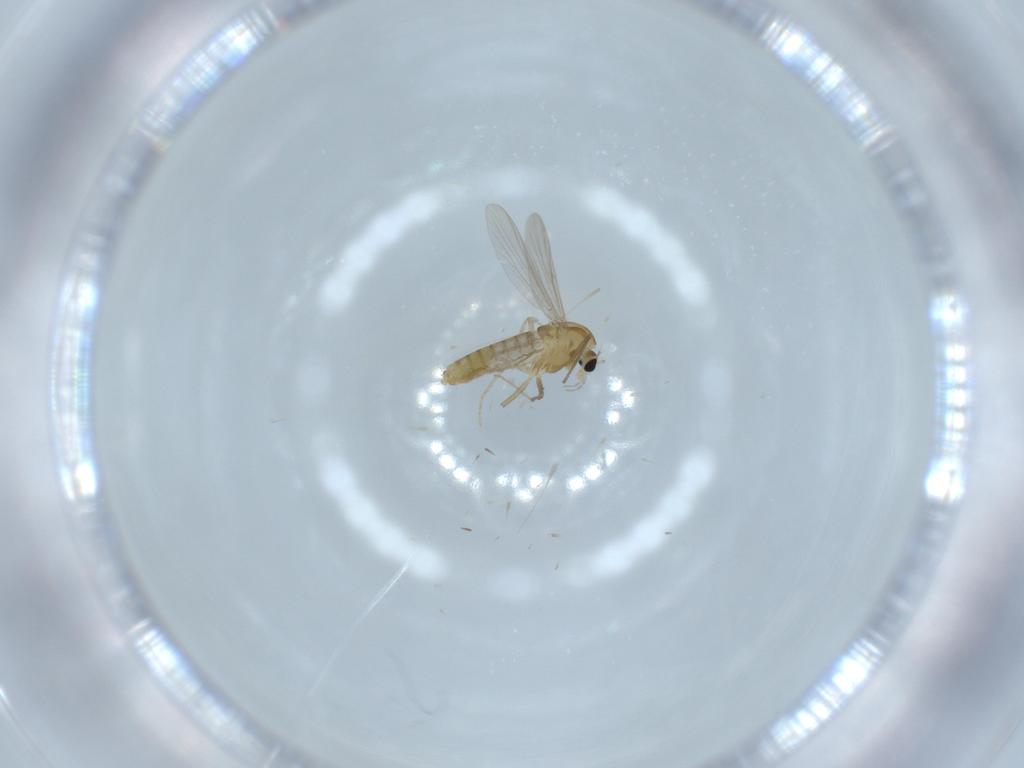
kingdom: Animalia
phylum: Arthropoda
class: Insecta
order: Diptera
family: Chironomidae
